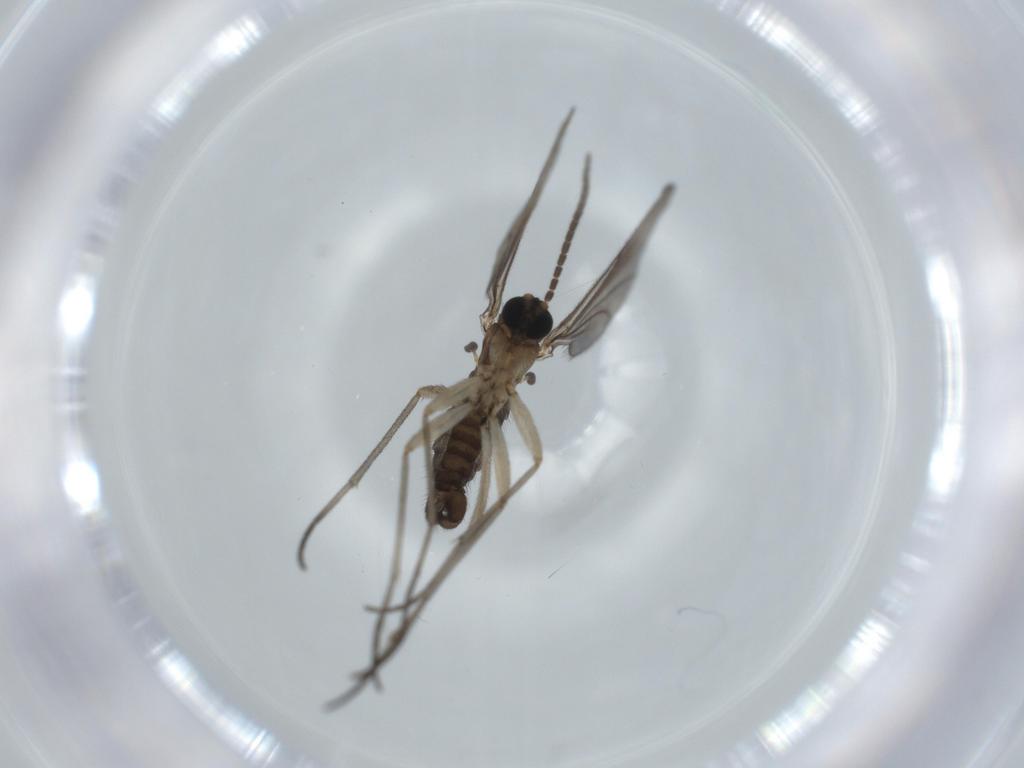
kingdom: Animalia
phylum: Arthropoda
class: Insecta
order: Diptera
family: Sciaridae
